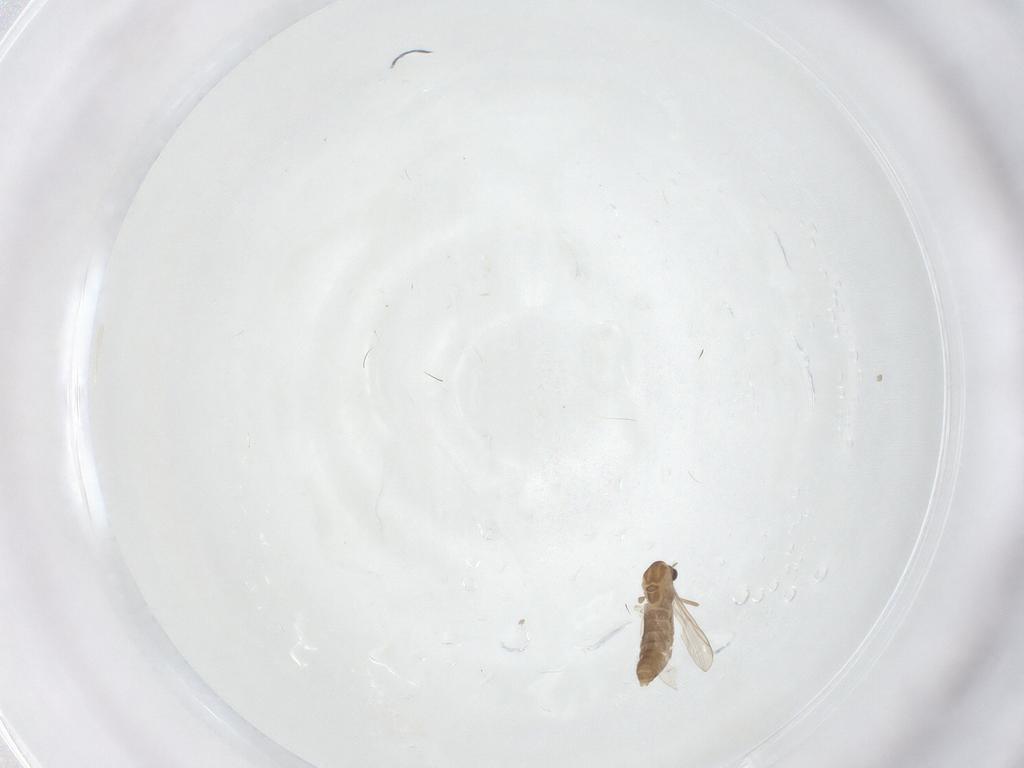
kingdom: Animalia
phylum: Arthropoda
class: Insecta
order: Diptera
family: Chironomidae
